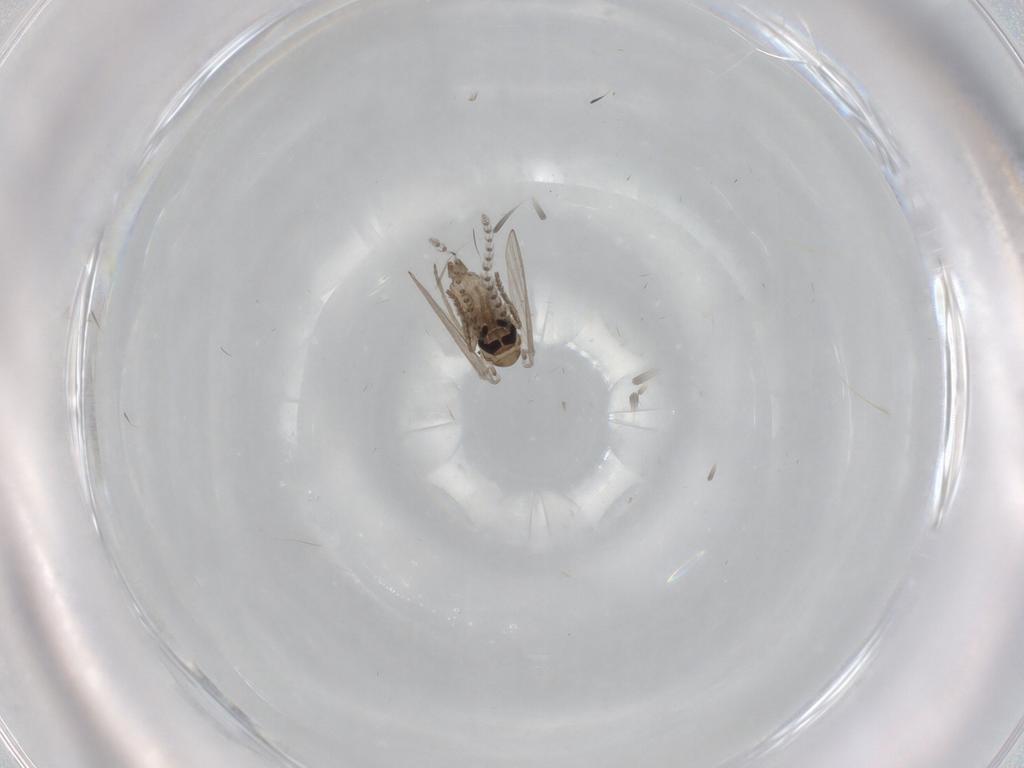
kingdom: Animalia
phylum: Arthropoda
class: Insecta
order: Diptera
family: Psychodidae
